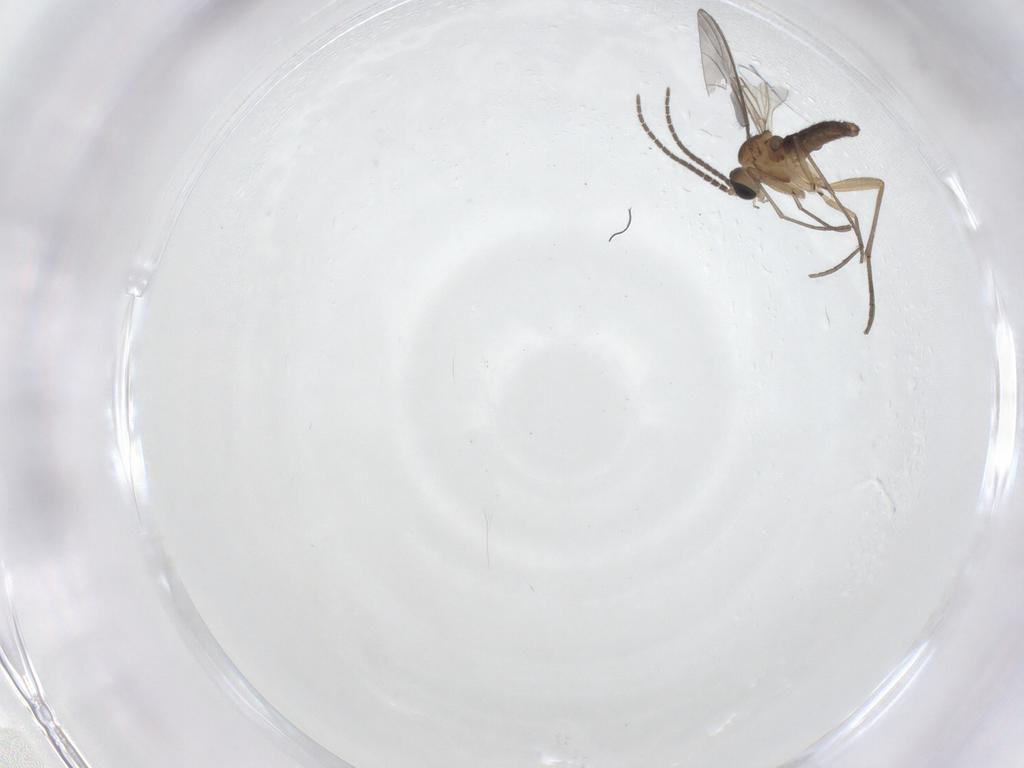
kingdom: Animalia
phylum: Arthropoda
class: Insecta
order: Diptera
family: Sciaridae
